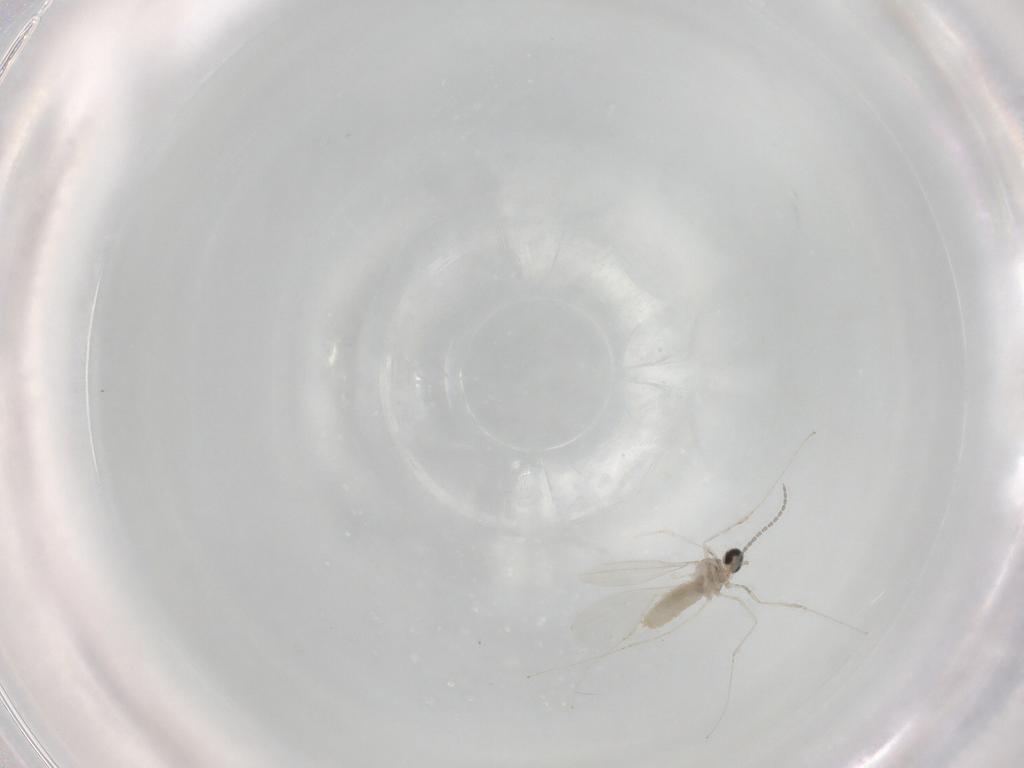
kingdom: Animalia
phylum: Arthropoda
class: Insecta
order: Diptera
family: Cecidomyiidae
